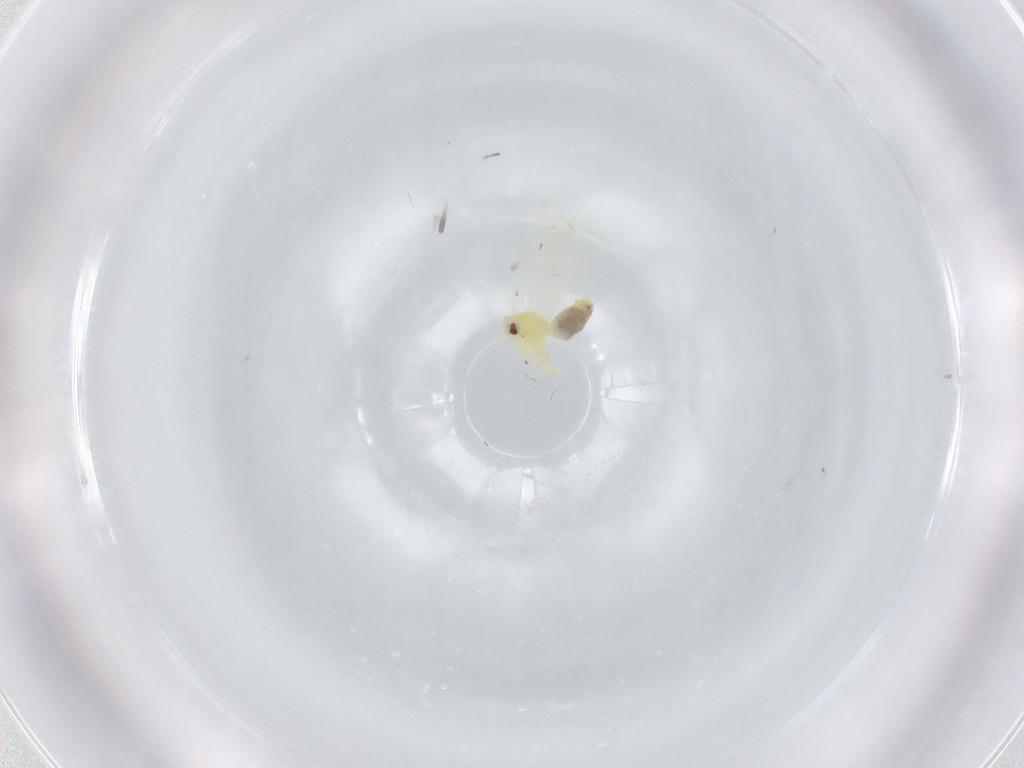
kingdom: Animalia
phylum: Arthropoda
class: Insecta
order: Hemiptera
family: Aleyrodidae
